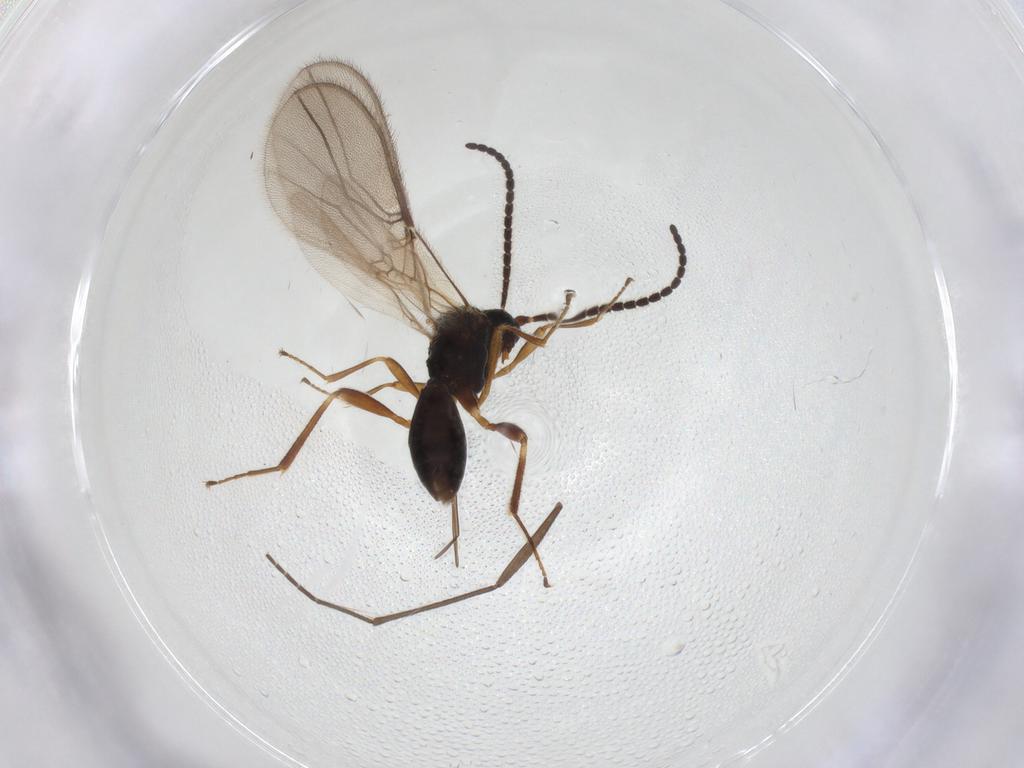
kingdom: Animalia
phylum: Arthropoda
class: Insecta
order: Hymenoptera
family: Braconidae
